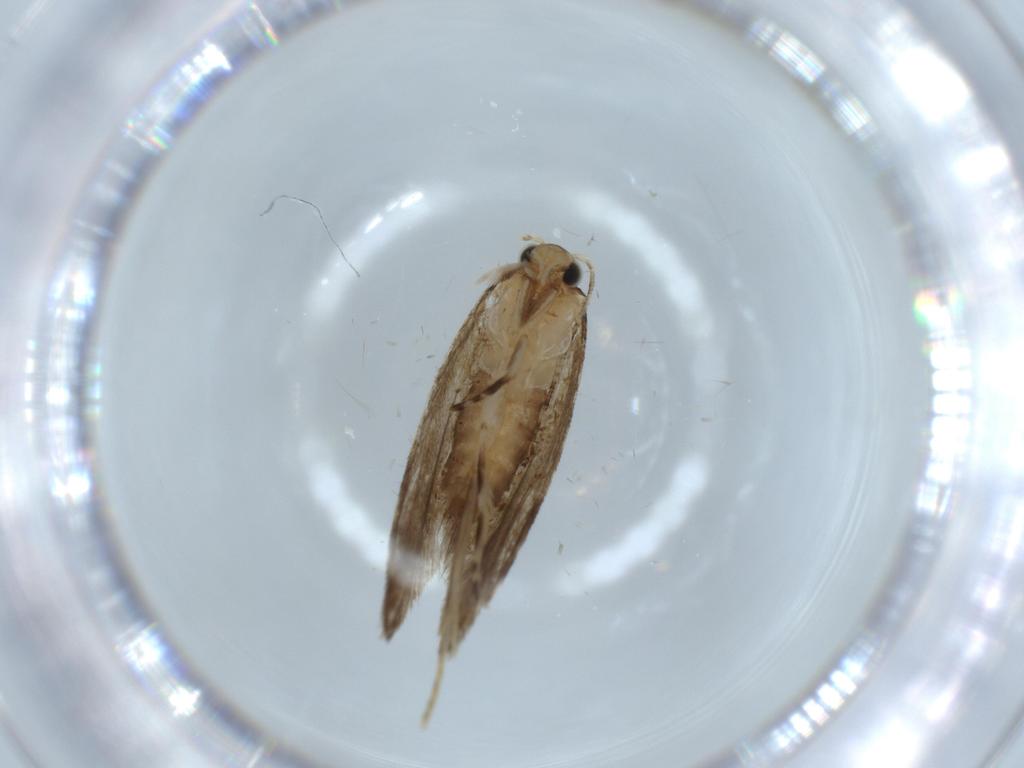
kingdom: Animalia
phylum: Arthropoda
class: Insecta
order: Lepidoptera
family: Tineidae
